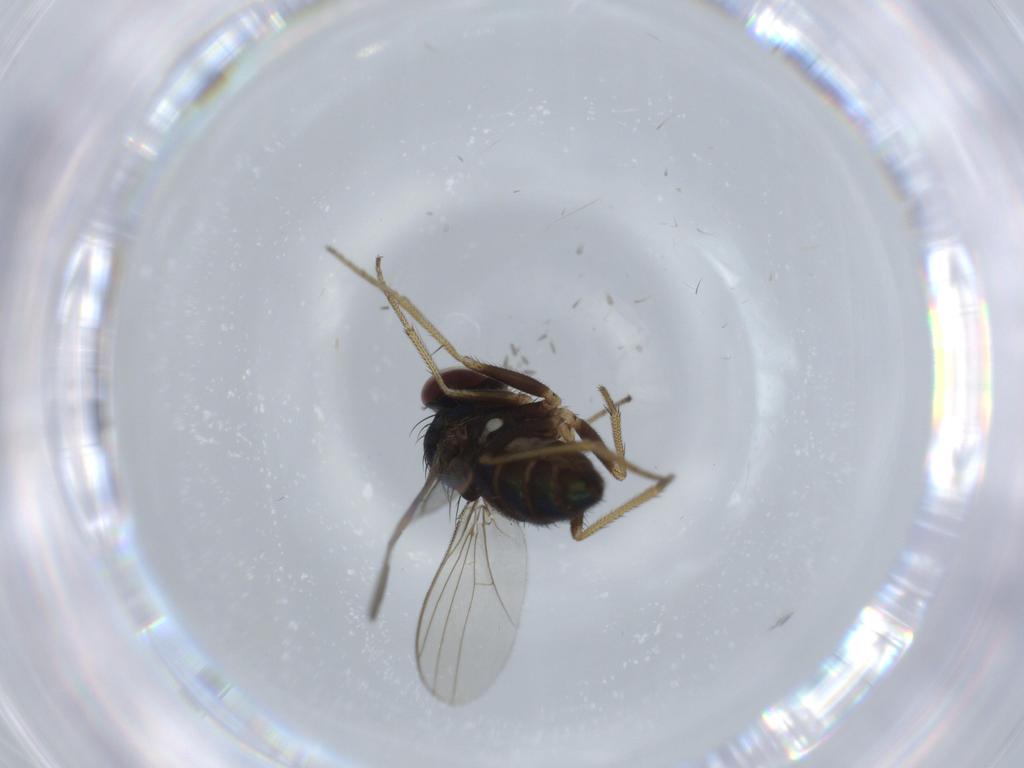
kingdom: Animalia
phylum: Arthropoda
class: Insecta
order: Diptera
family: Dolichopodidae
